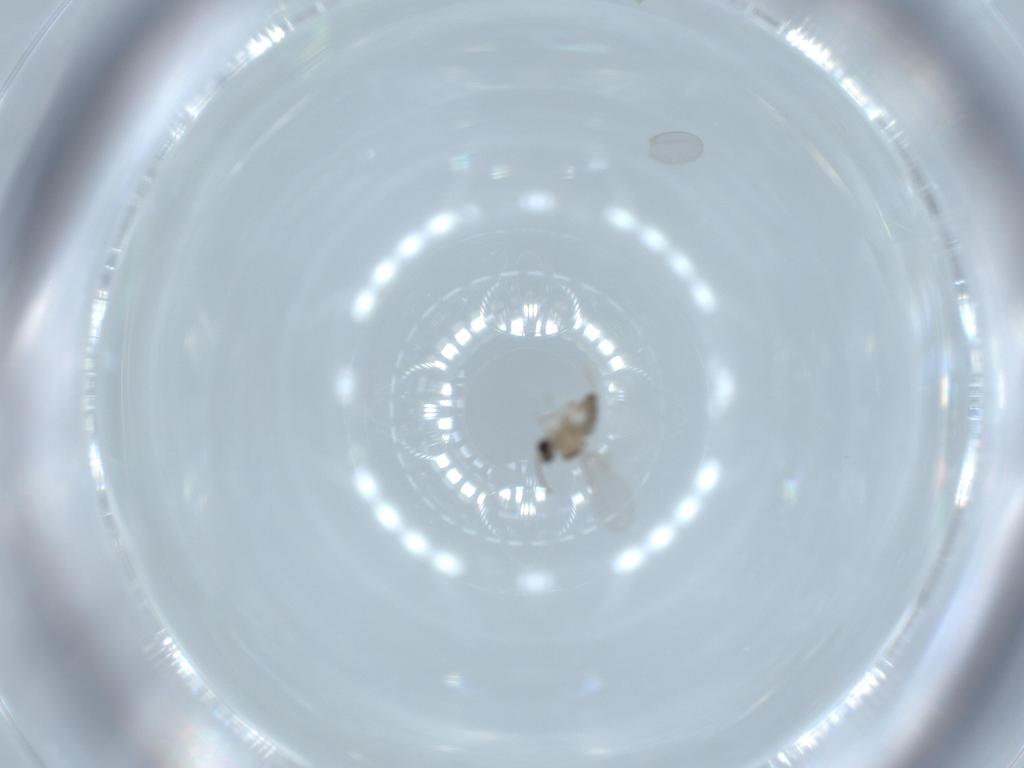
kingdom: Animalia
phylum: Arthropoda
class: Insecta
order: Diptera
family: Cecidomyiidae
